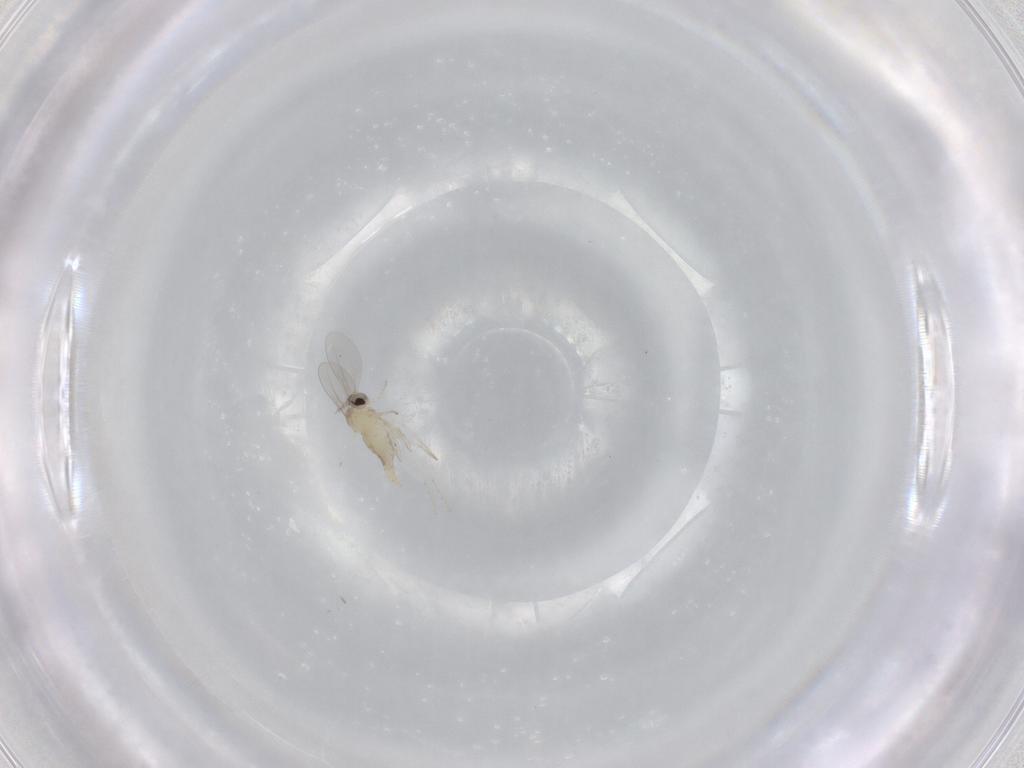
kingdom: Animalia
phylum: Arthropoda
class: Insecta
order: Diptera
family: Cecidomyiidae
